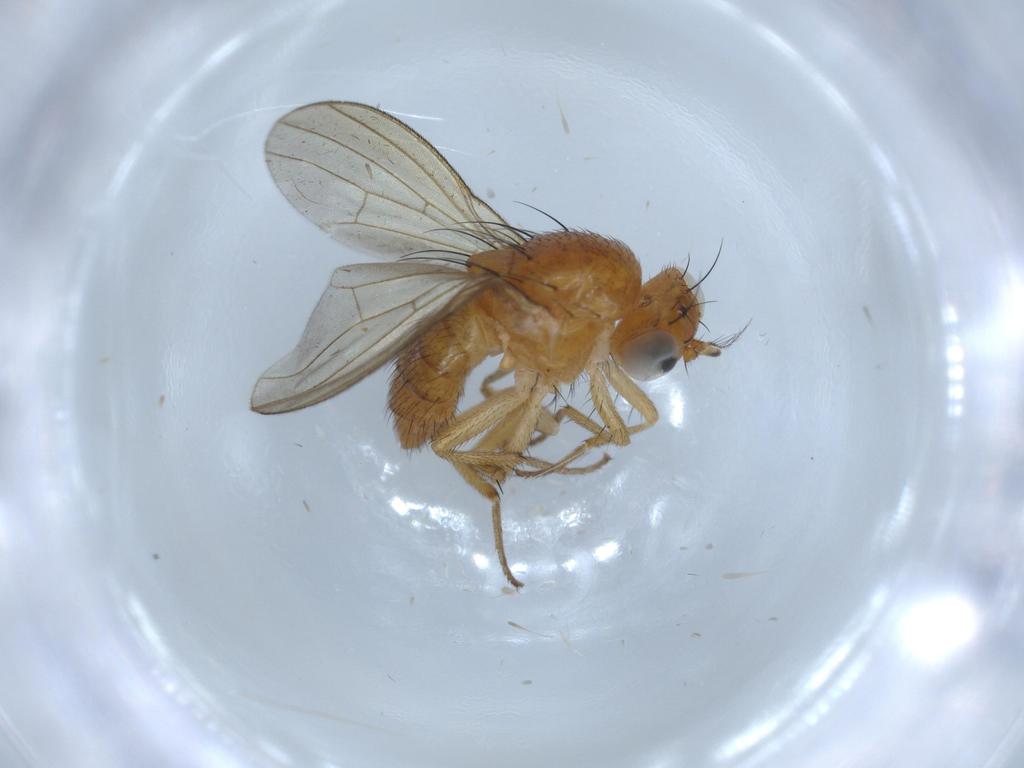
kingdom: Animalia
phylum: Arthropoda
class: Insecta
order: Diptera
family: Lauxaniidae
